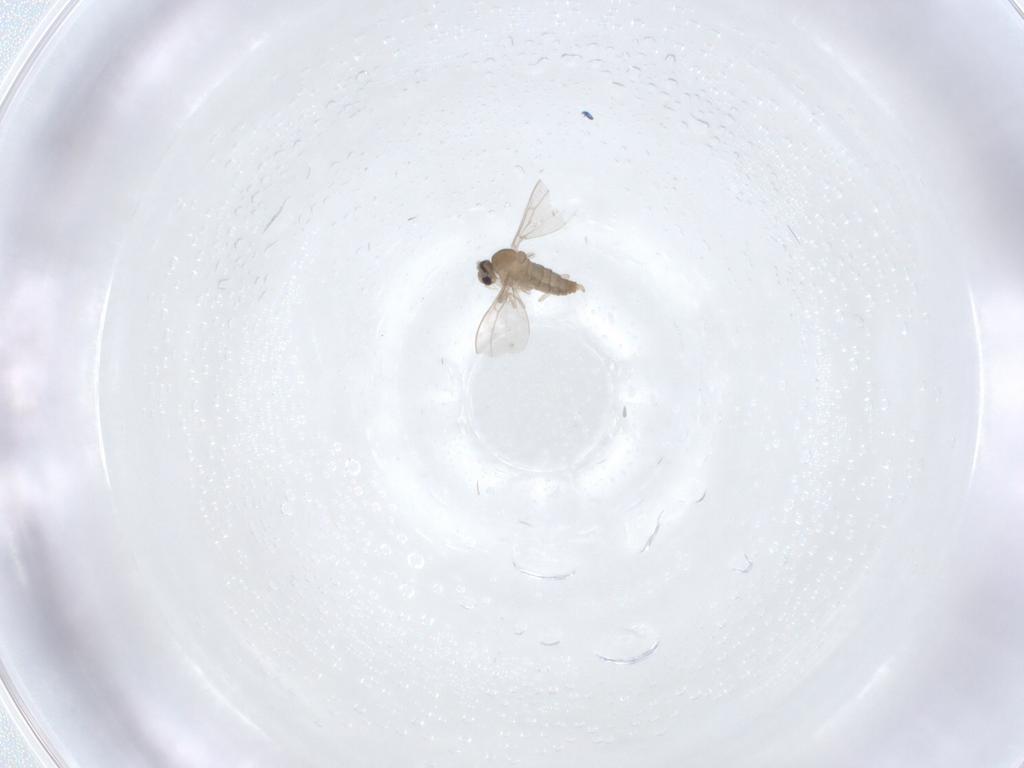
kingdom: Animalia
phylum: Arthropoda
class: Insecta
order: Diptera
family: Cecidomyiidae
